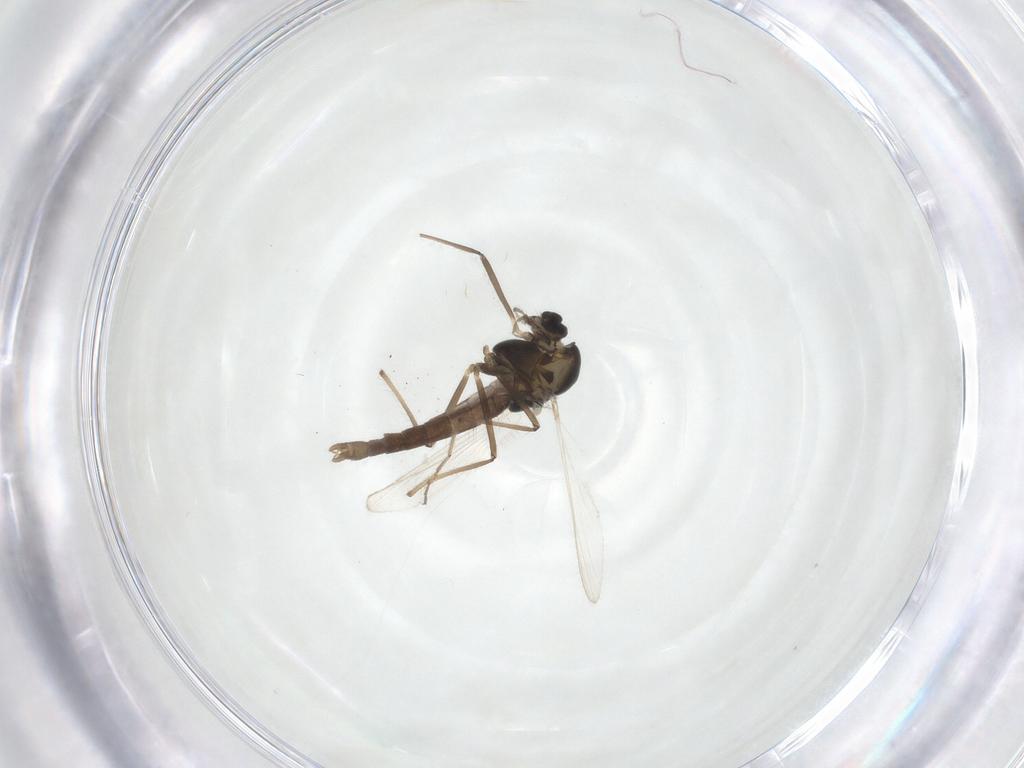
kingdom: Animalia
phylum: Arthropoda
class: Insecta
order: Diptera
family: Chironomidae
